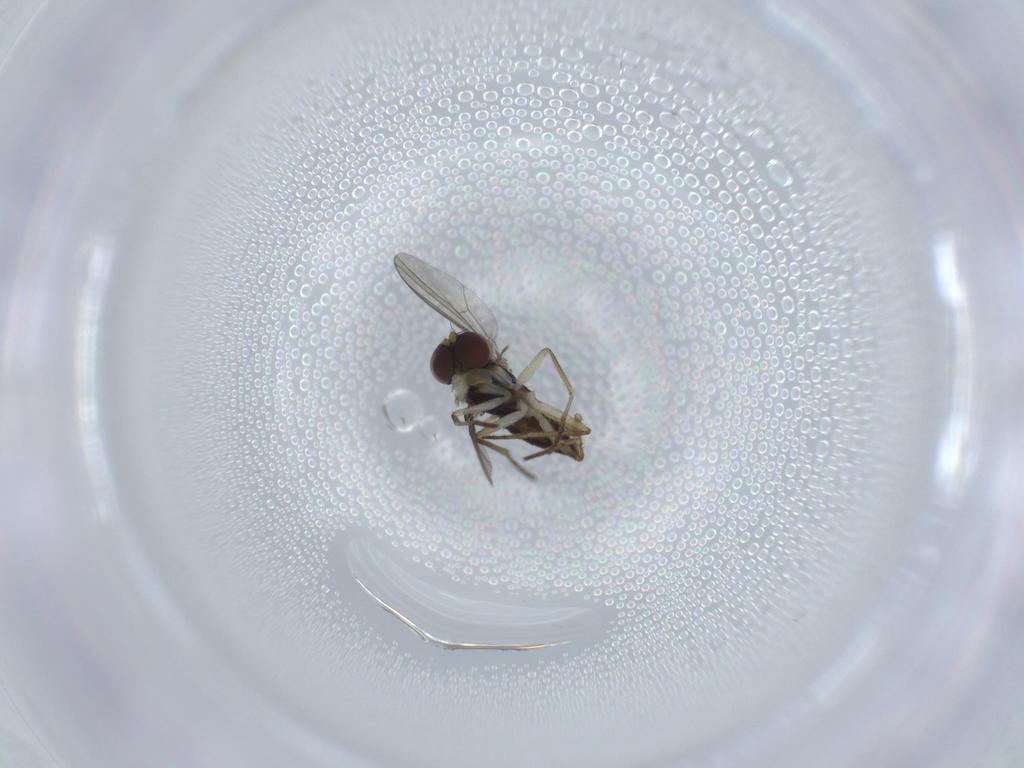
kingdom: Animalia
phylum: Arthropoda
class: Insecta
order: Diptera
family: Dolichopodidae
